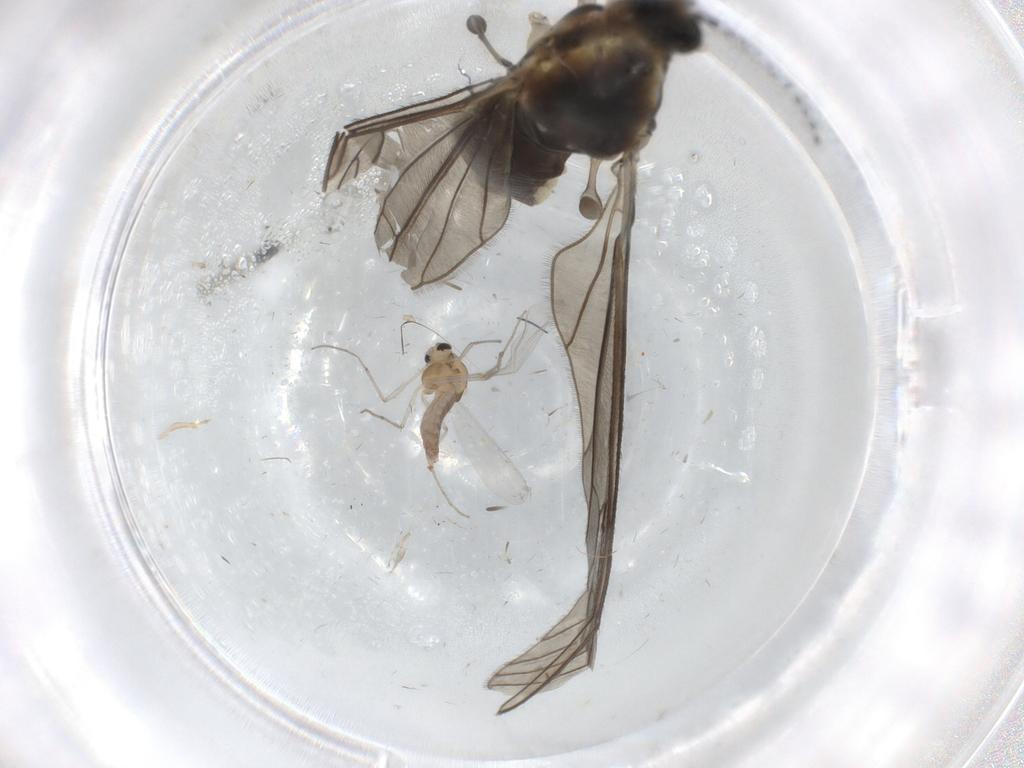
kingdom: Animalia
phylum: Arthropoda
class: Insecta
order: Diptera
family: Limoniidae
